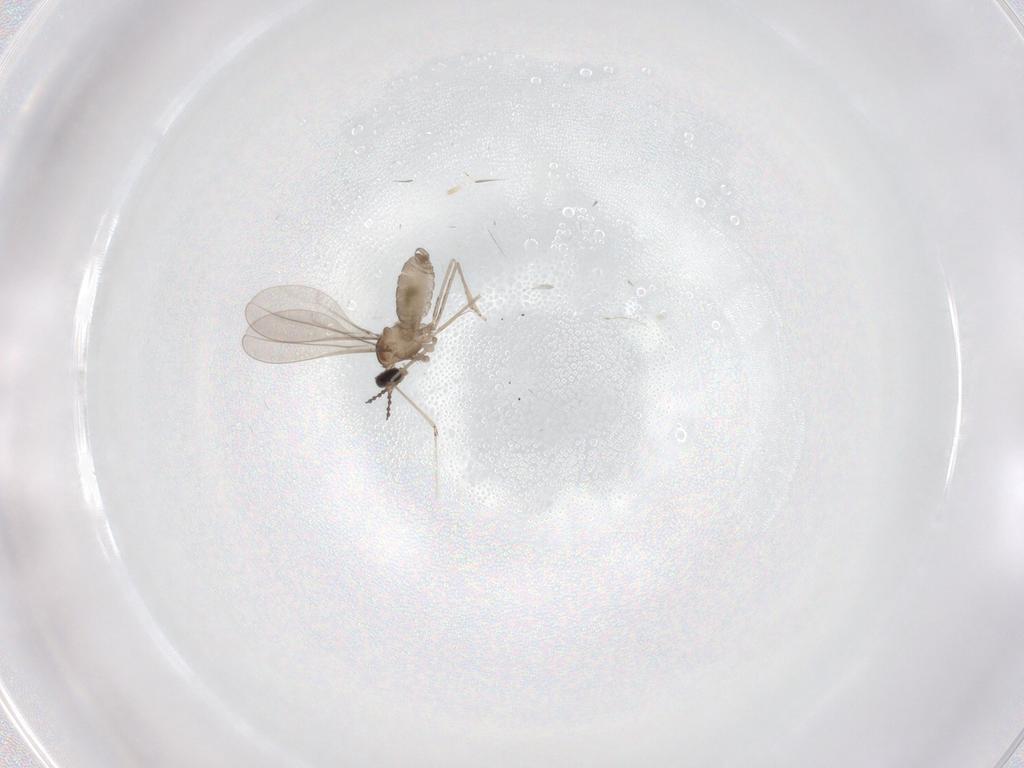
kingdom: Animalia
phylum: Arthropoda
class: Insecta
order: Diptera
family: Cecidomyiidae
